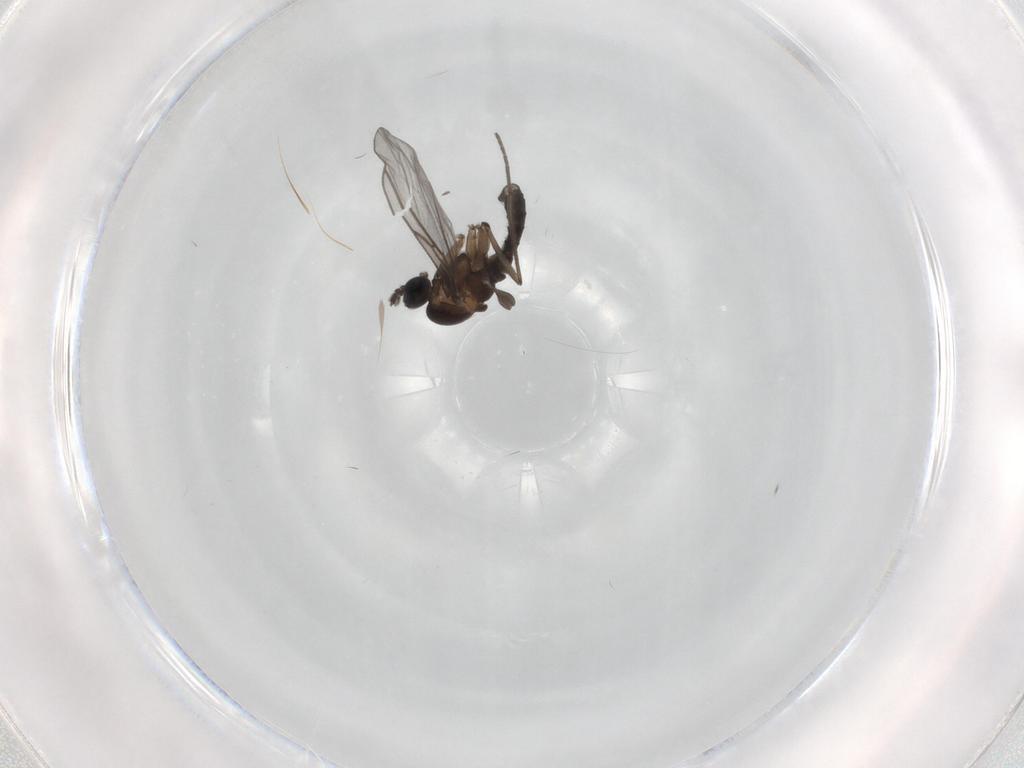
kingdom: Animalia
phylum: Arthropoda
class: Insecta
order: Diptera
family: Sciaridae
